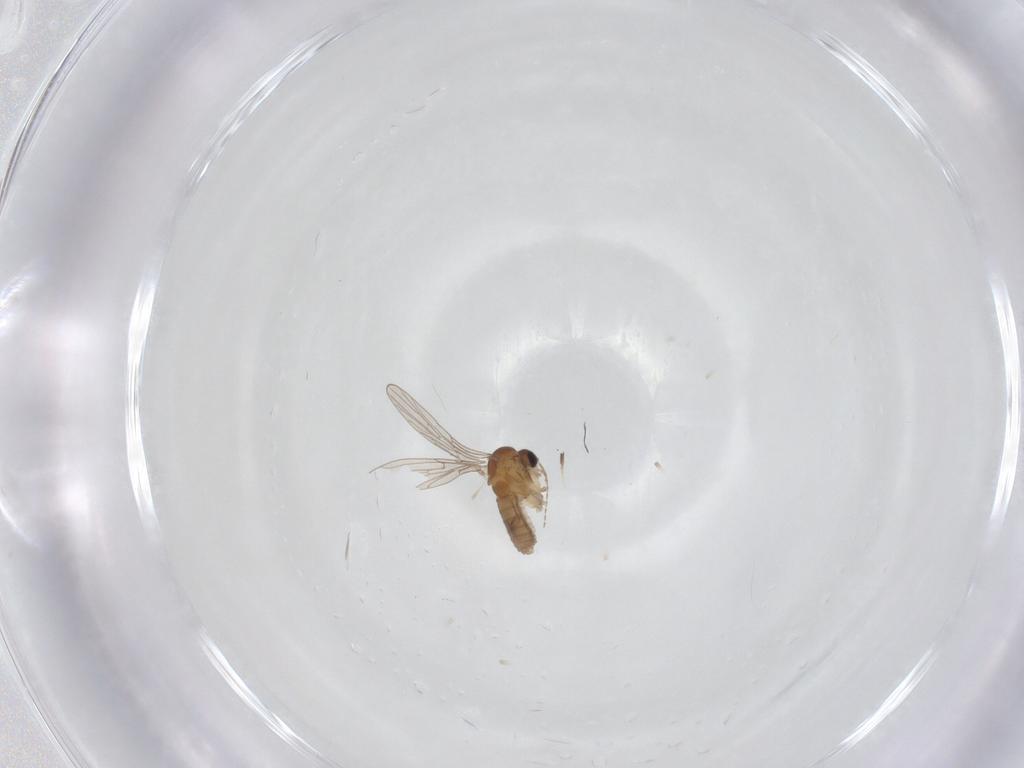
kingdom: Animalia
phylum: Arthropoda
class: Insecta
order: Diptera
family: Psychodidae
